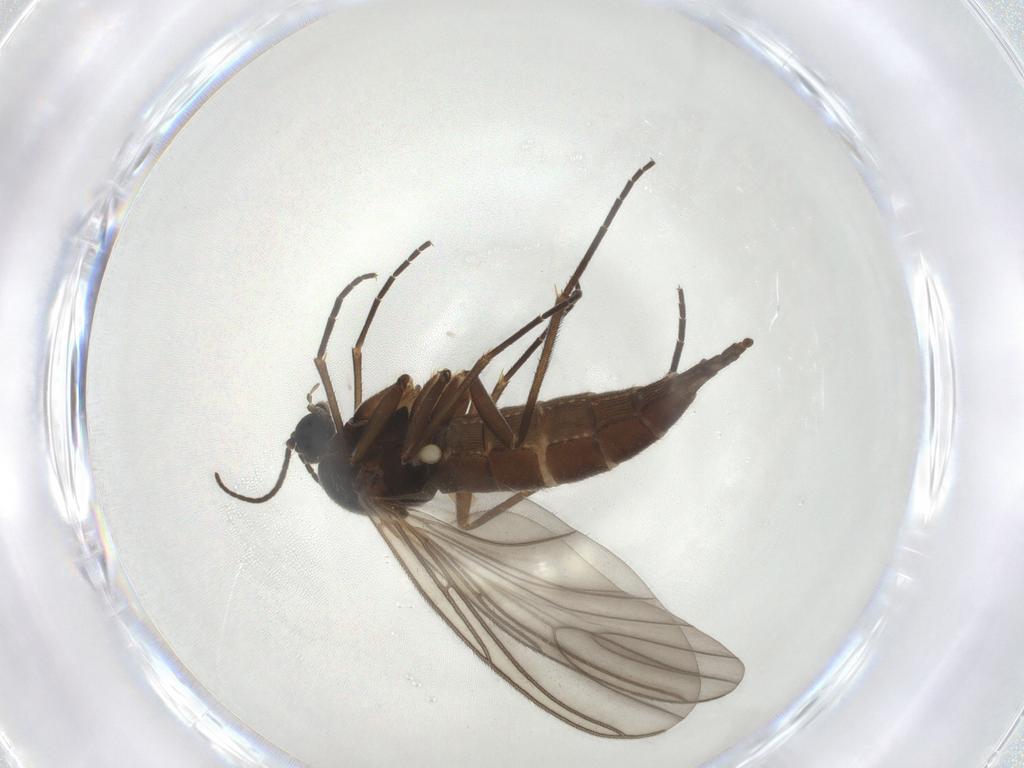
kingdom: Animalia
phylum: Arthropoda
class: Insecta
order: Diptera
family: Sciaridae
